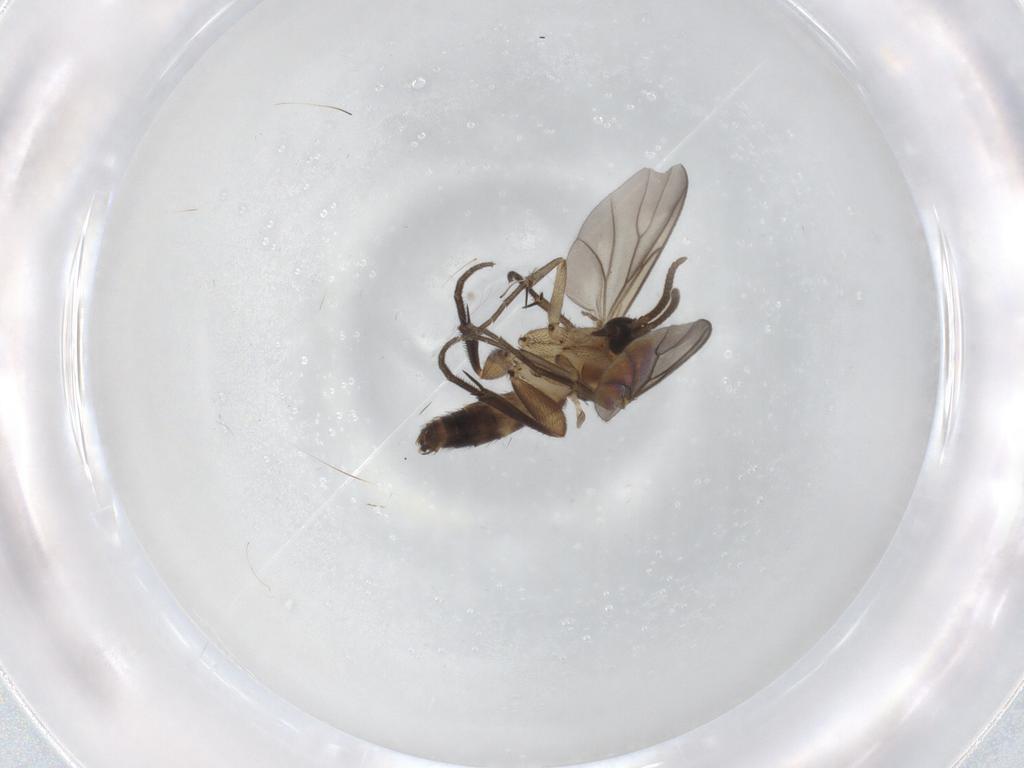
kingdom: Animalia
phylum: Arthropoda
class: Insecta
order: Diptera
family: Mycetophilidae
